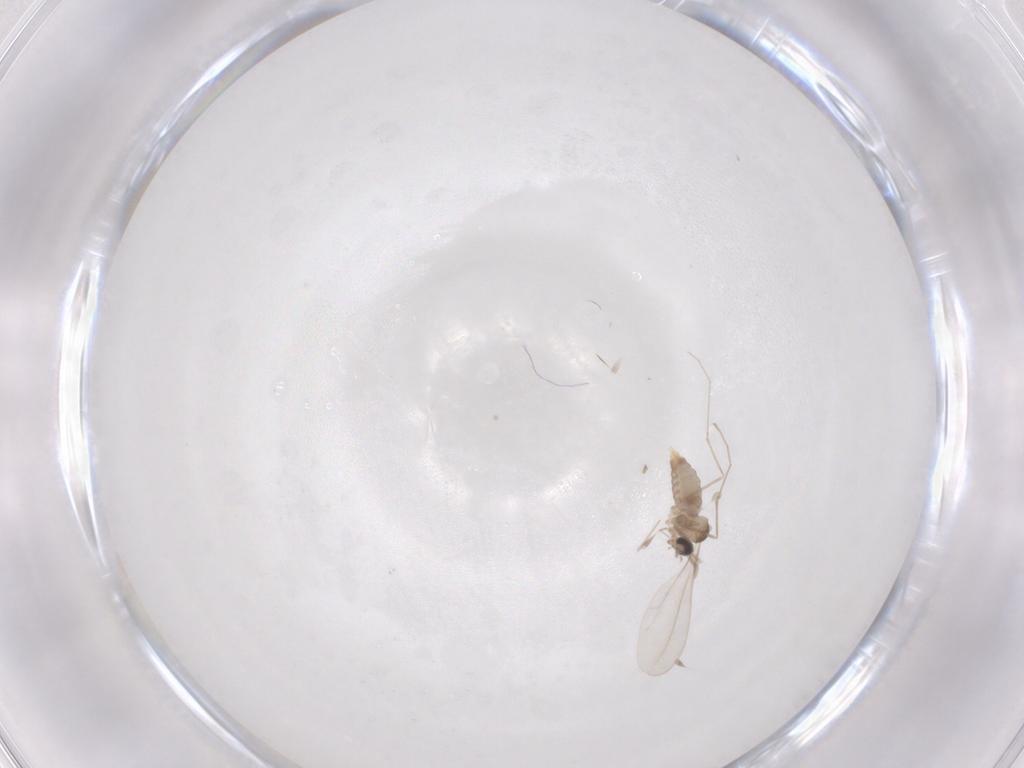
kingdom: Animalia
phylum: Arthropoda
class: Insecta
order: Diptera
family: Cecidomyiidae
